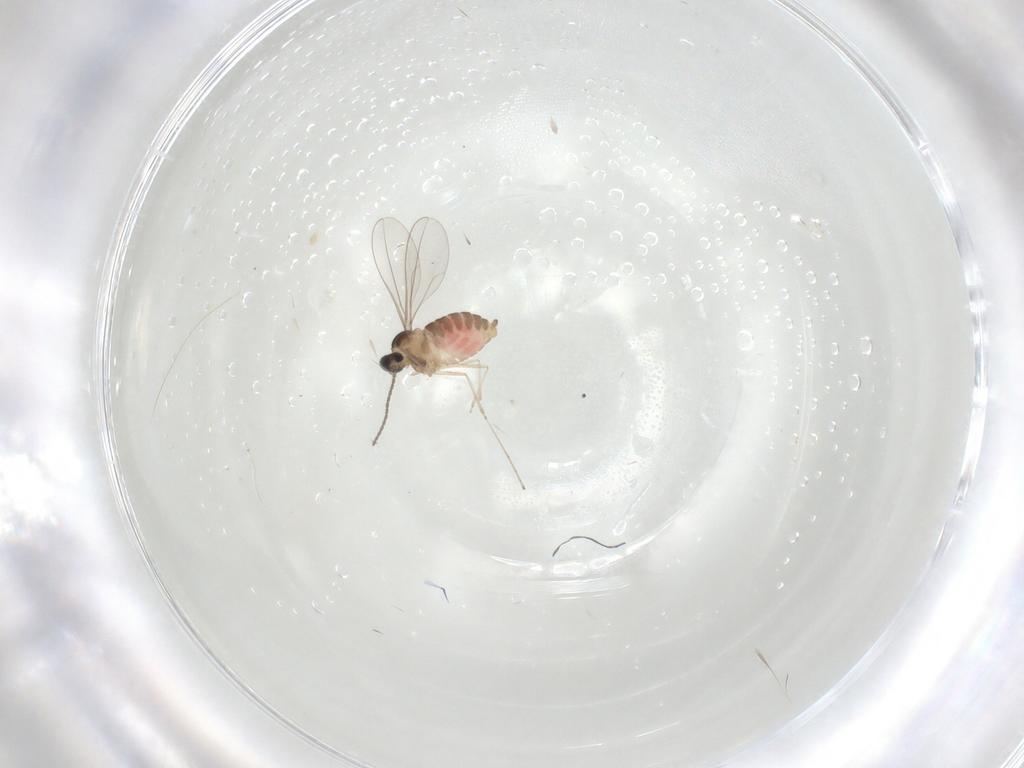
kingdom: Animalia
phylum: Arthropoda
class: Insecta
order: Diptera
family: Cecidomyiidae
